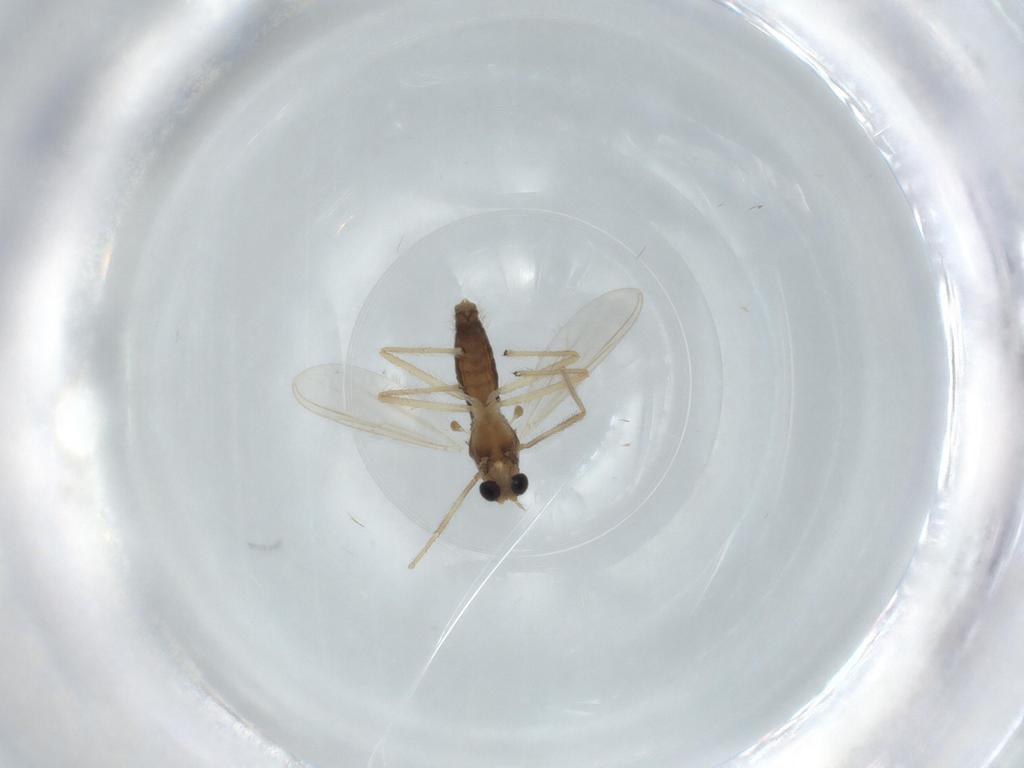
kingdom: Animalia
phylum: Arthropoda
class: Insecta
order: Diptera
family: Chironomidae
